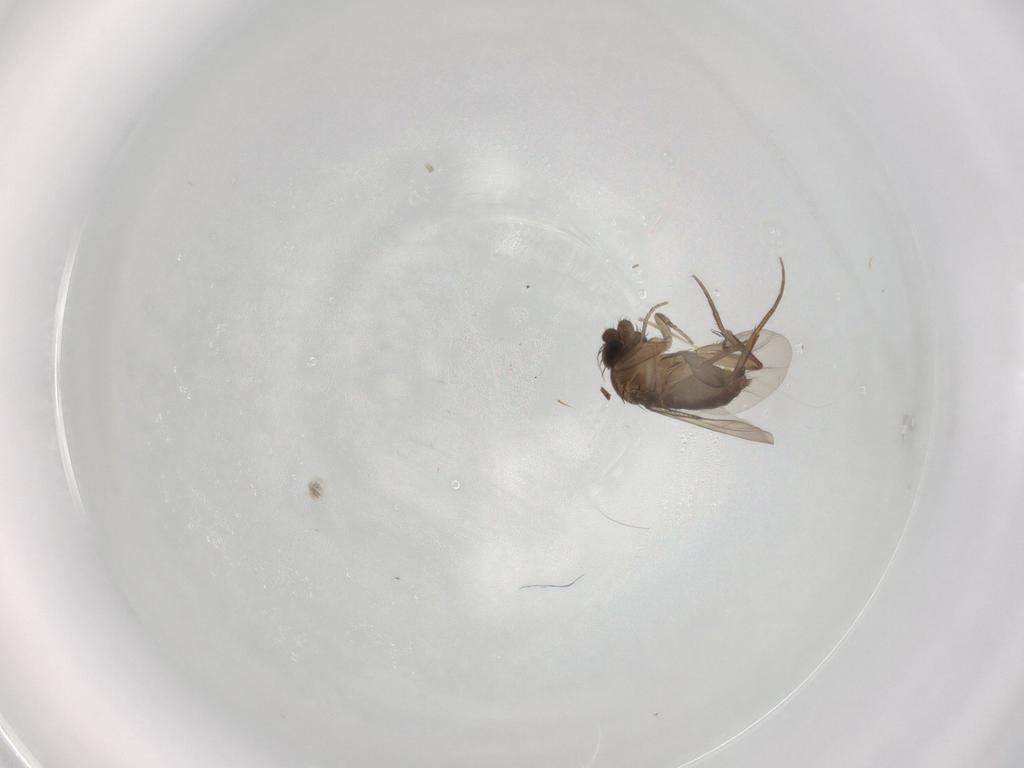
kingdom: Animalia
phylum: Arthropoda
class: Insecta
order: Diptera
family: Phoridae
